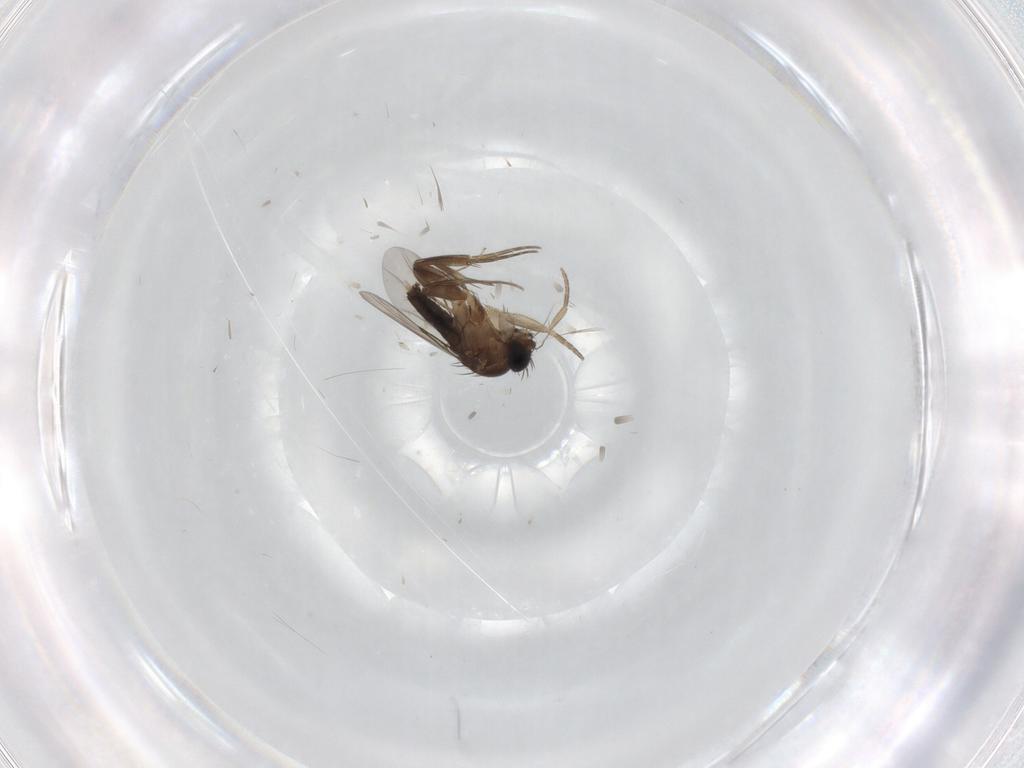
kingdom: Animalia
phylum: Arthropoda
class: Insecta
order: Diptera
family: Phoridae
